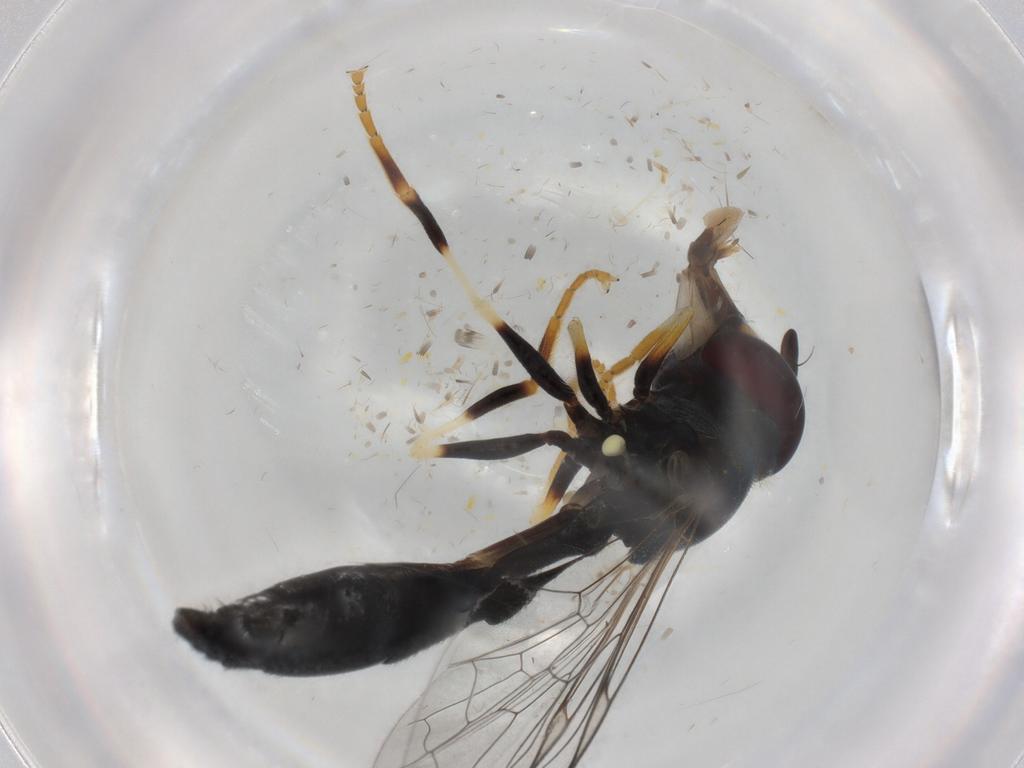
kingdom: Animalia
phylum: Arthropoda
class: Insecta
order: Diptera
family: Syrphidae
